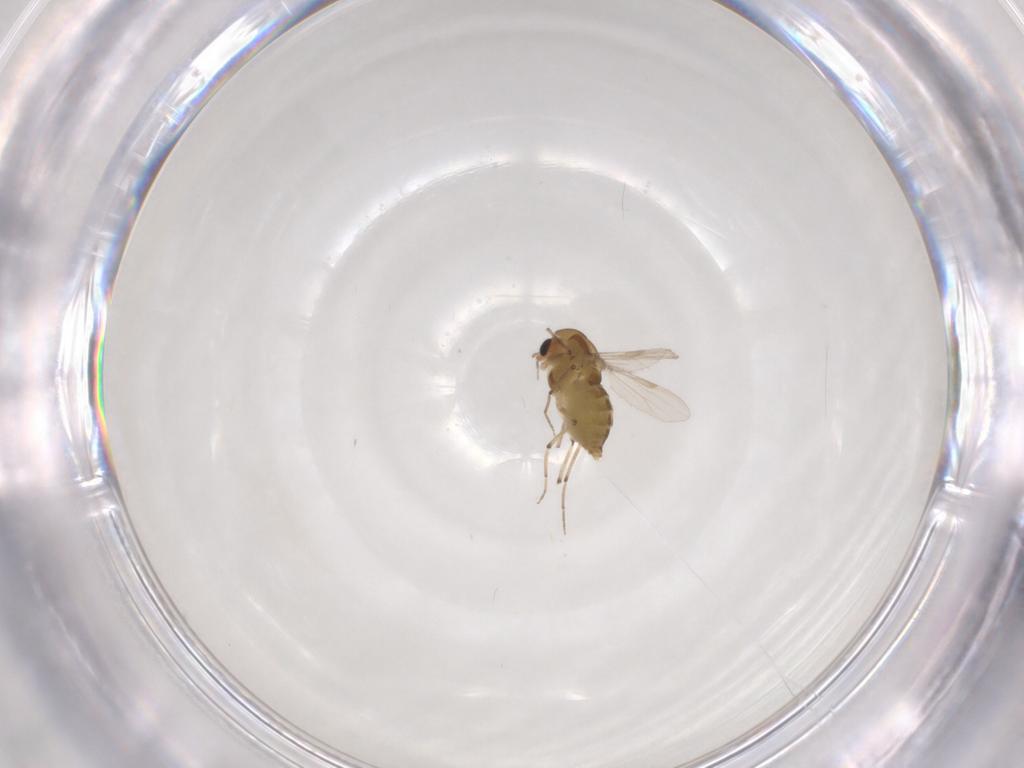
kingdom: Animalia
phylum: Arthropoda
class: Insecta
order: Diptera
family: Chironomidae
